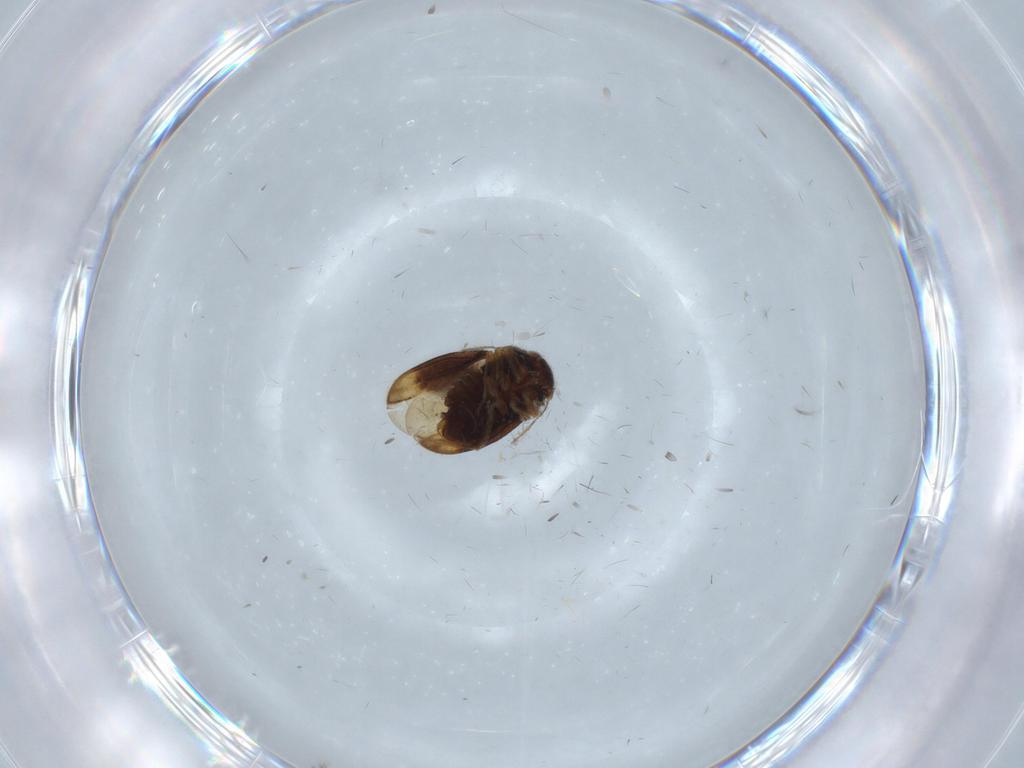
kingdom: Animalia
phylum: Arthropoda
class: Insecta
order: Hemiptera
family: Schizopteridae
